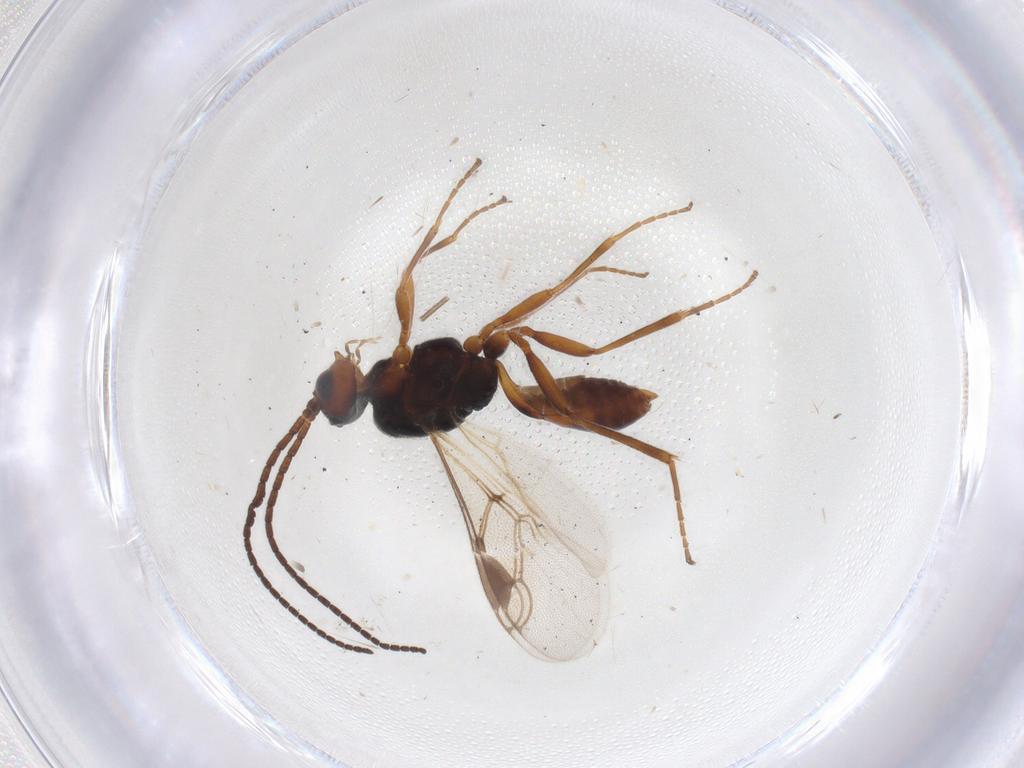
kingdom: Animalia
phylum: Arthropoda
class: Insecta
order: Hymenoptera
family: Braconidae
